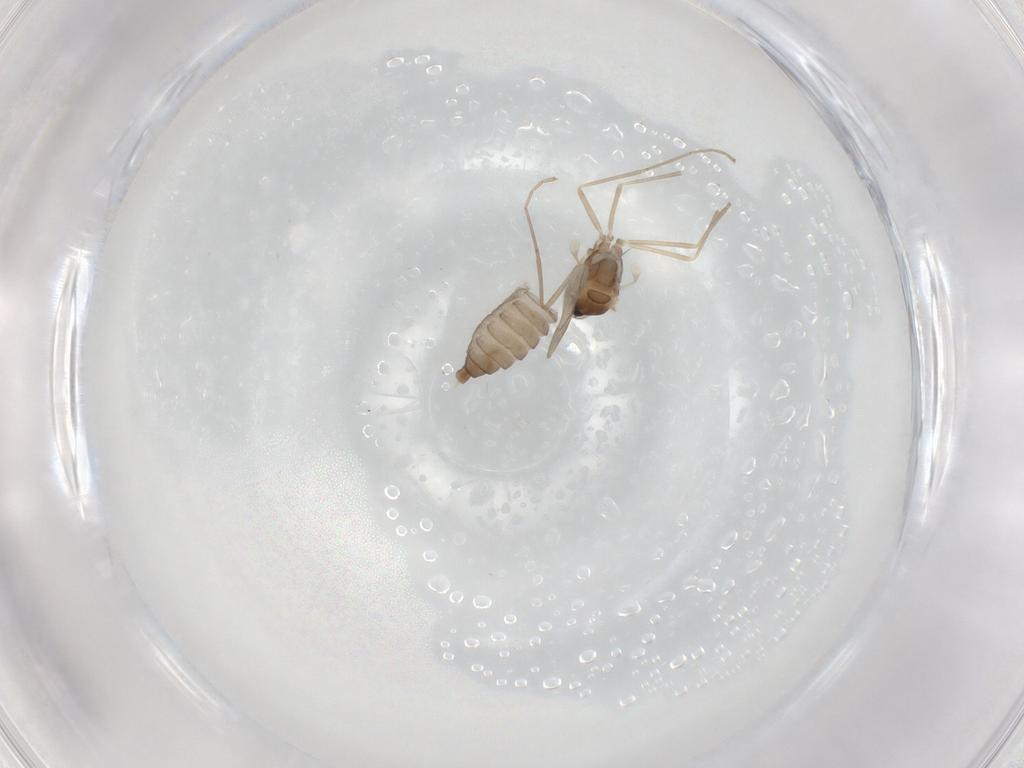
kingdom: Animalia
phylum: Arthropoda
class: Insecta
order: Diptera
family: Cecidomyiidae
